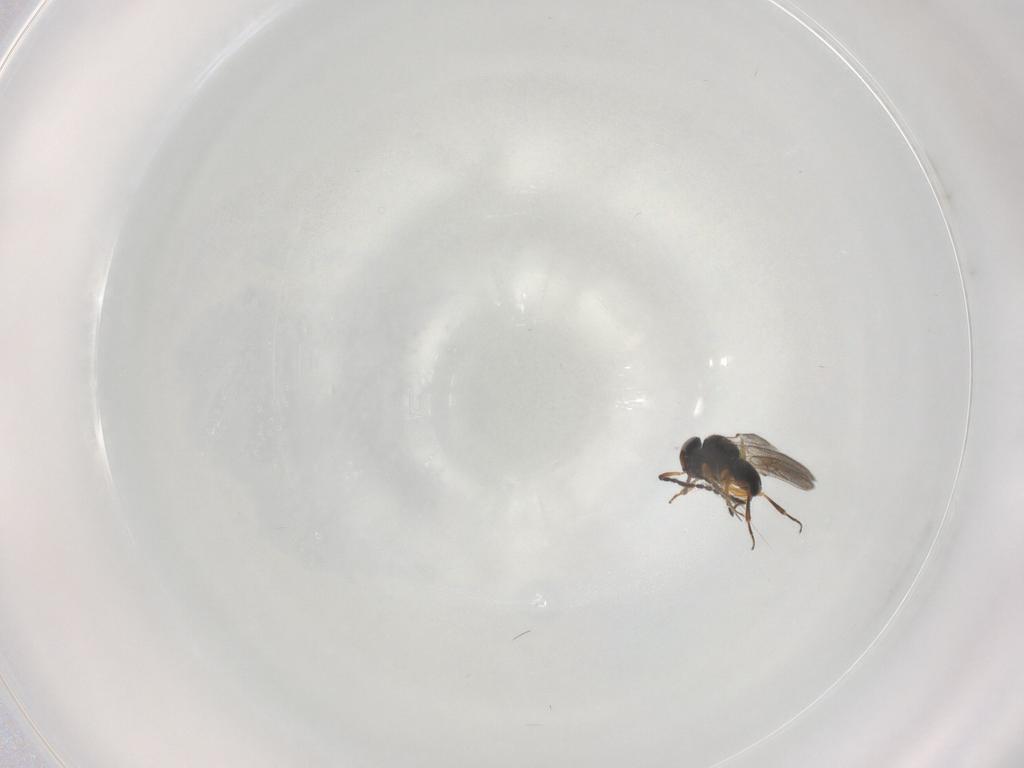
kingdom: Animalia
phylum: Arthropoda
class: Insecta
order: Hymenoptera
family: Scelionidae
